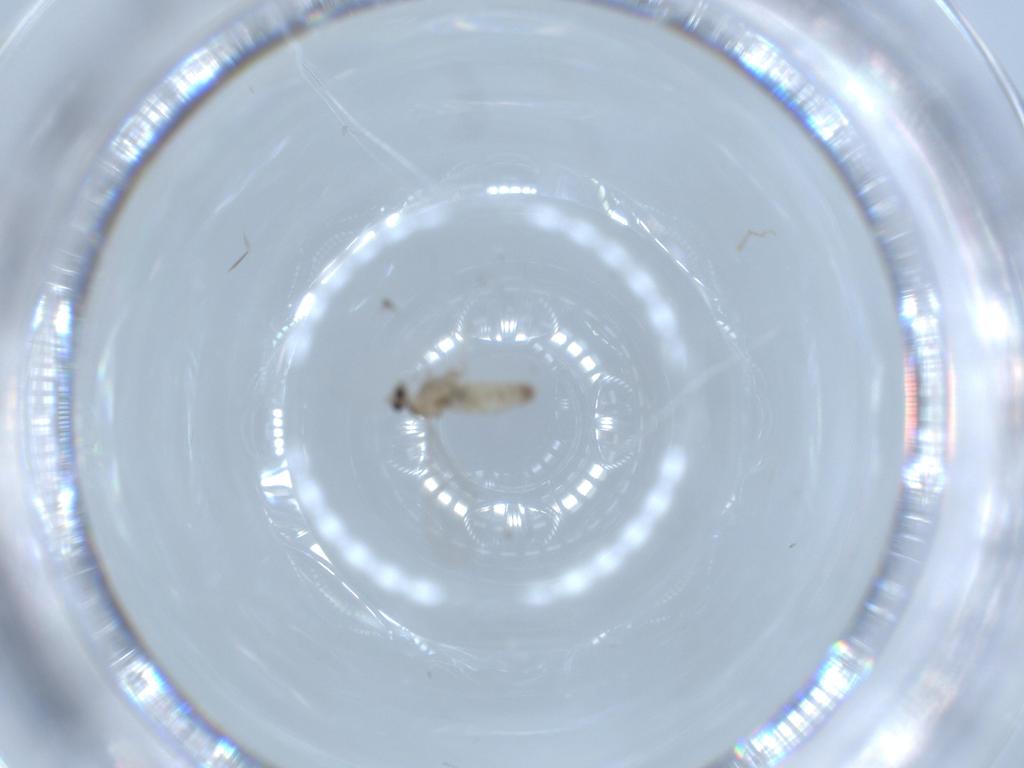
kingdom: Animalia
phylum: Arthropoda
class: Insecta
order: Diptera
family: Cecidomyiidae
